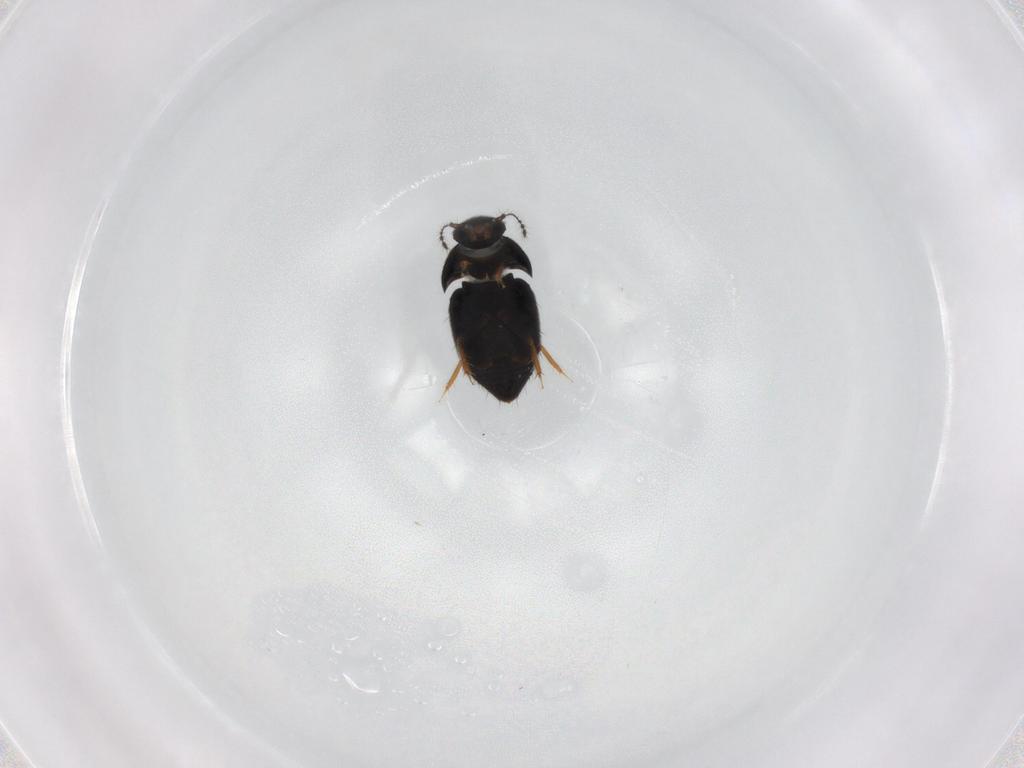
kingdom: Animalia
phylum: Arthropoda
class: Insecta
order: Coleoptera
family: Ptiliidae
